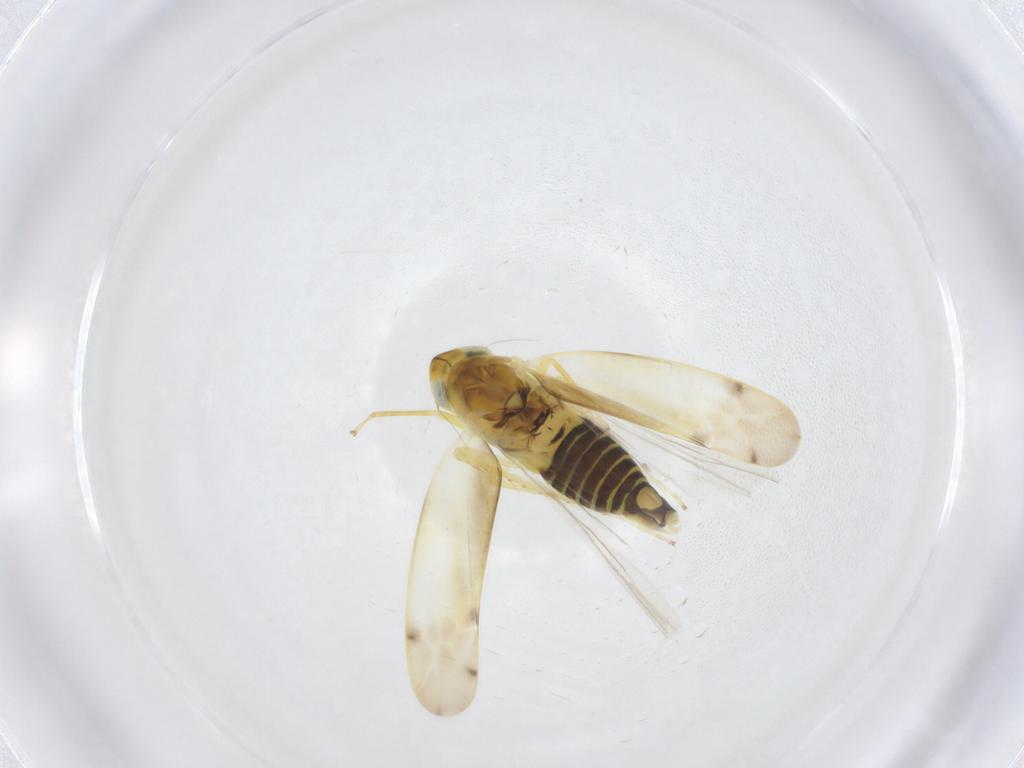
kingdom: Animalia
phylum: Arthropoda
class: Insecta
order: Hemiptera
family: Cicadellidae
